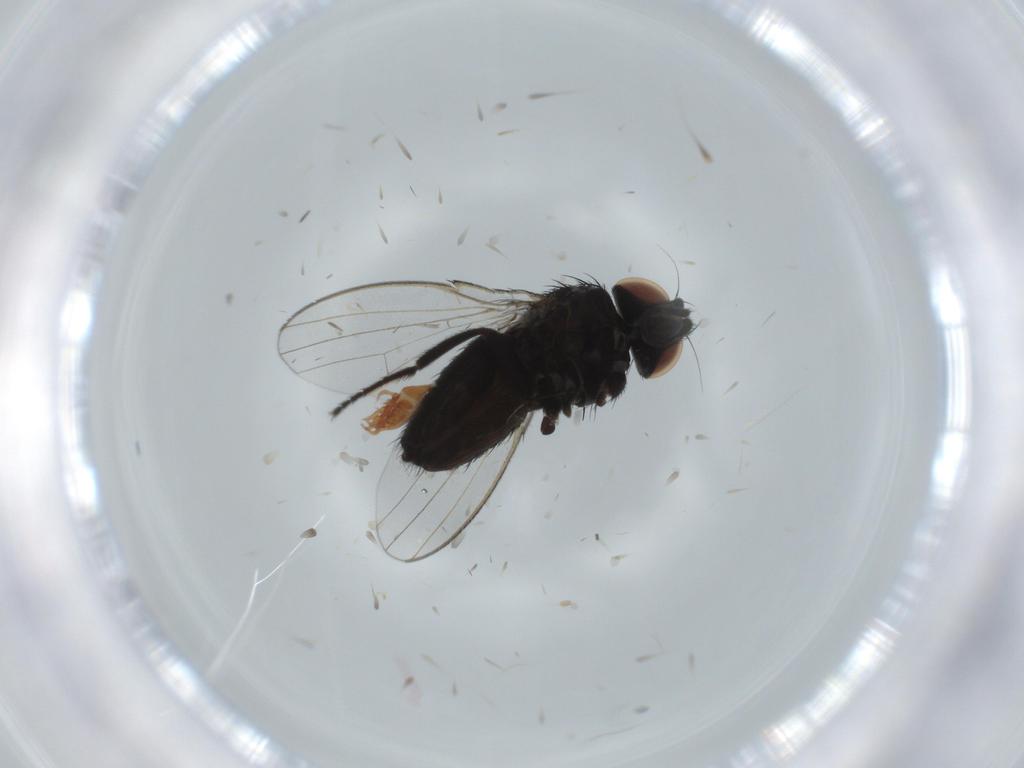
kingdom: Animalia
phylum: Arthropoda
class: Insecta
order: Diptera
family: Milichiidae
